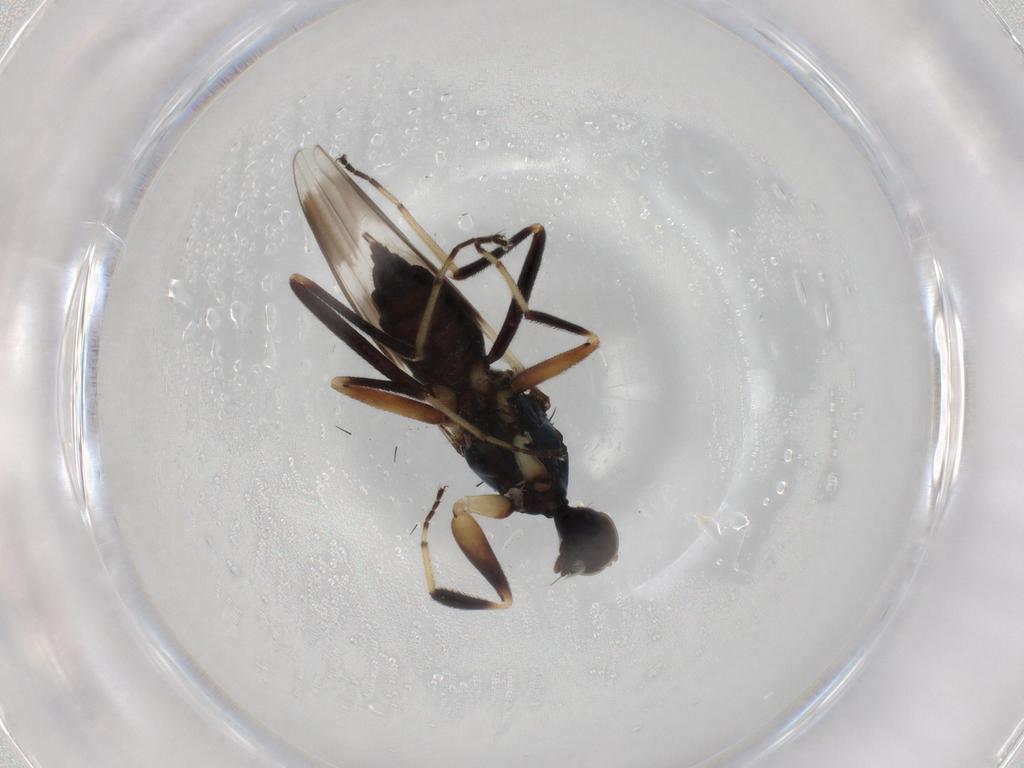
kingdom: Animalia
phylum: Arthropoda
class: Insecta
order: Diptera
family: Hybotidae
